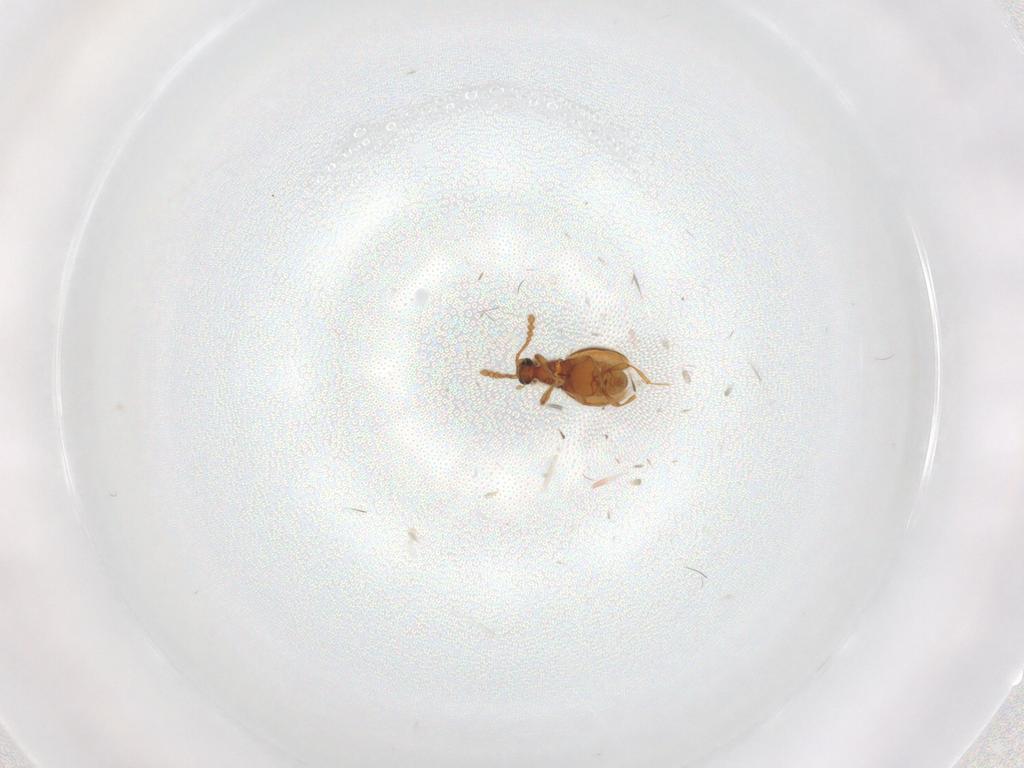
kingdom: Animalia
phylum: Arthropoda
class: Insecta
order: Coleoptera
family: Staphylinidae
